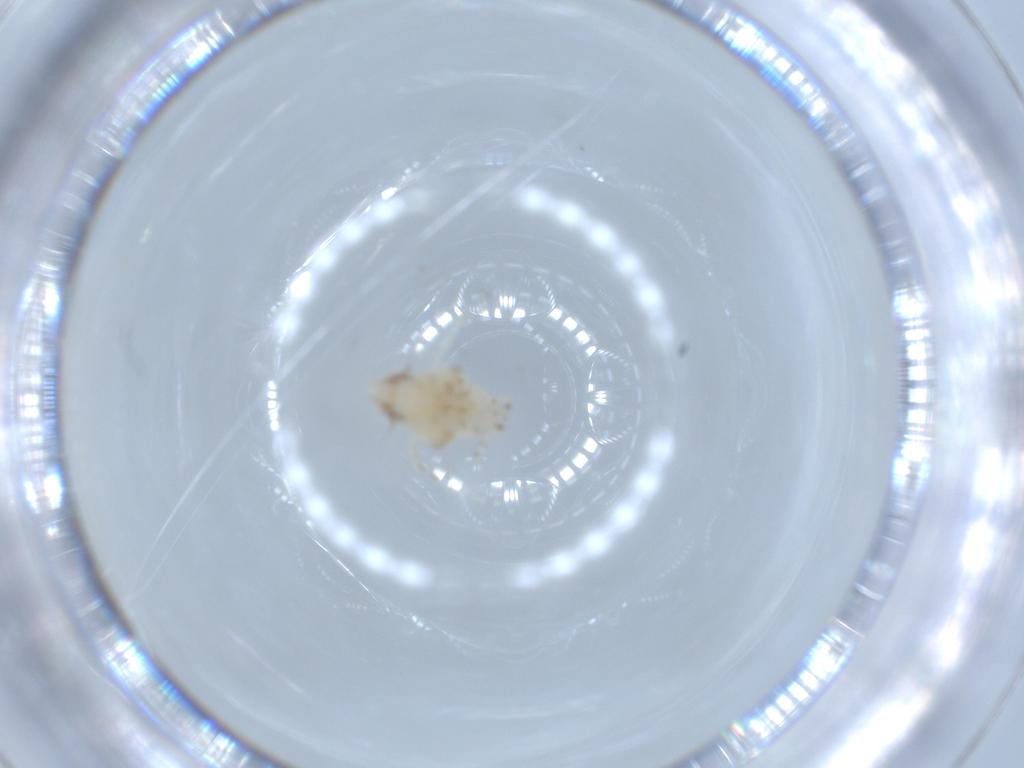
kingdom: Animalia
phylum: Arthropoda
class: Insecta
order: Hemiptera
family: Nogodinidae
